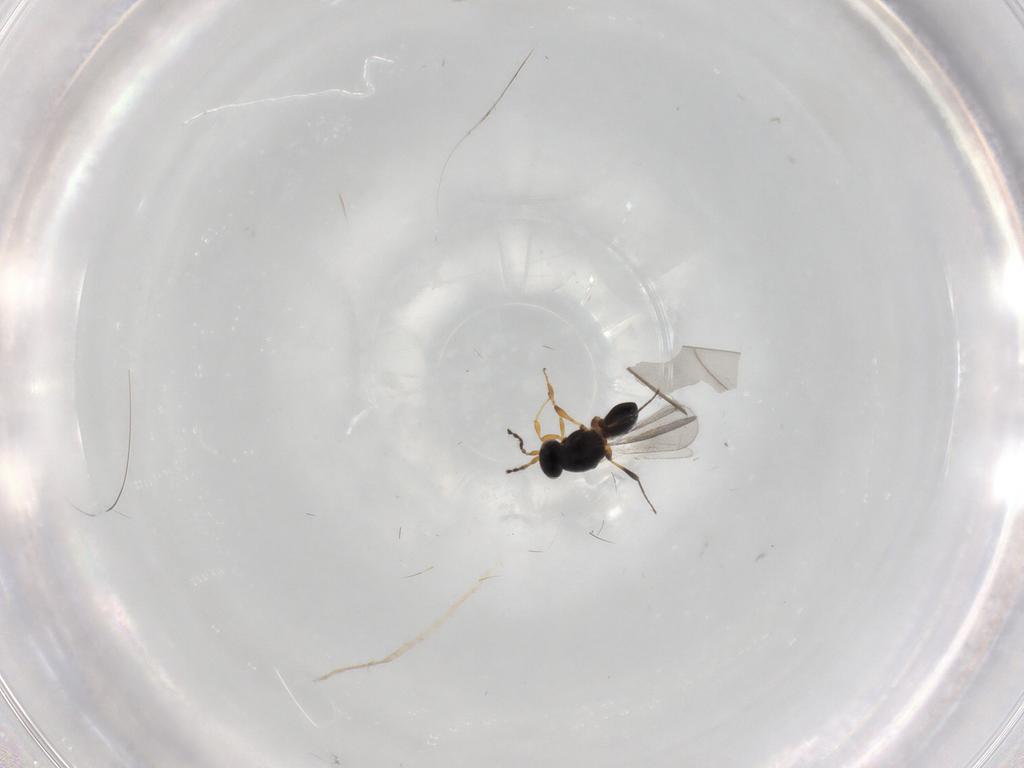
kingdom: Animalia
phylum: Arthropoda
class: Insecta
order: Hymenoptera
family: Platygastridae
